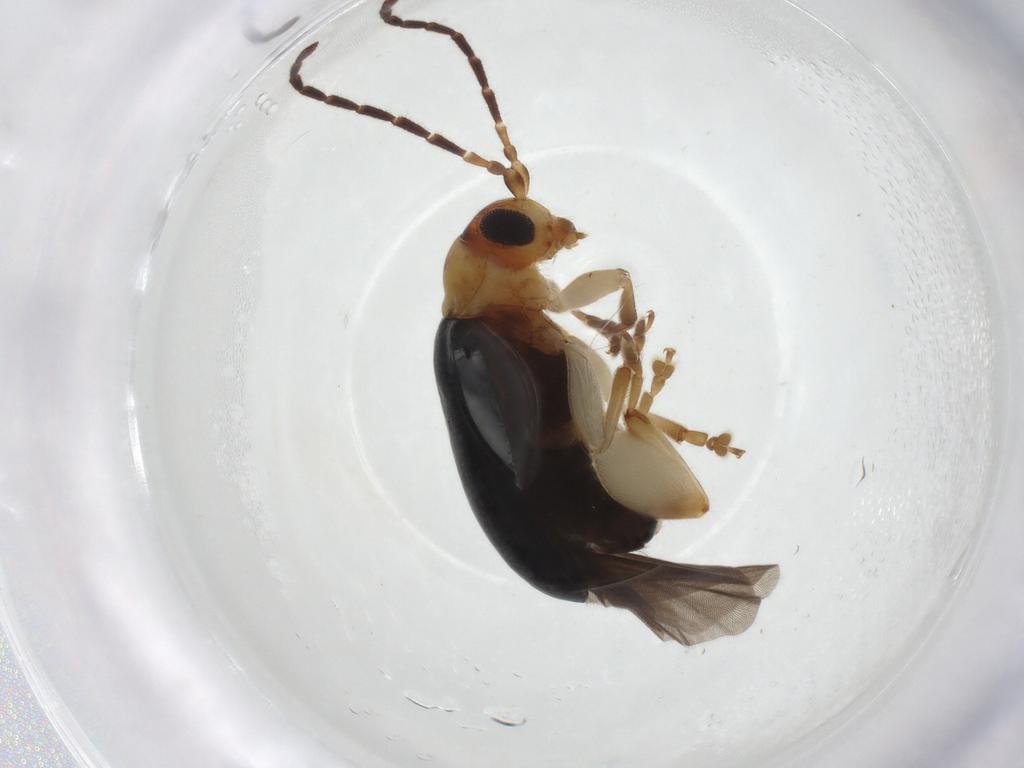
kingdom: Animalia
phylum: Arthropoda
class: Insecta
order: Coleoptera
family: Chrysomelidae
